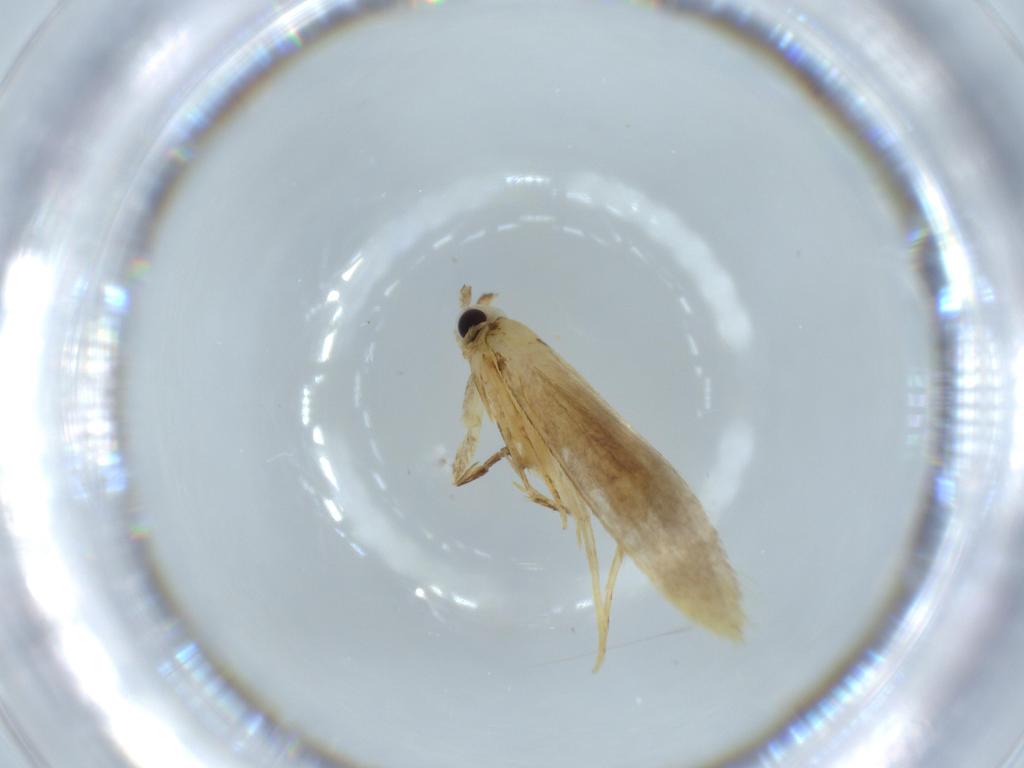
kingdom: Animalia
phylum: Arthropoda
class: Insecta
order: Lepidoptera
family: Tineidae
